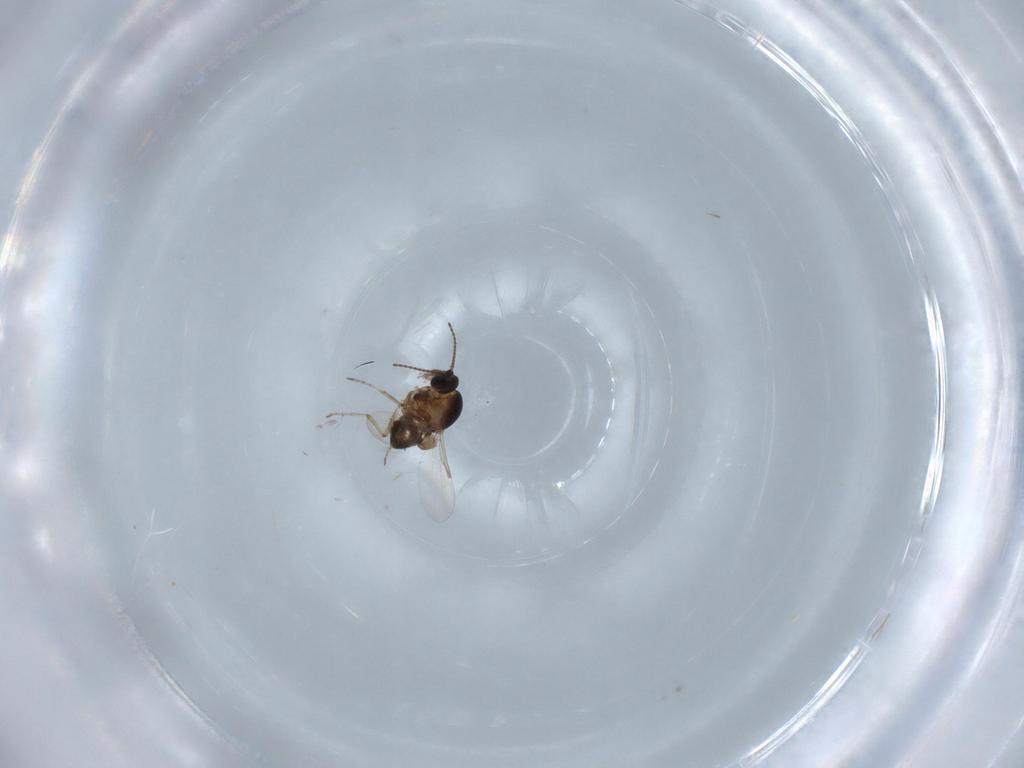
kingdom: Animalia
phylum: Arthropoda
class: Insecta
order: Diptera
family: Ceratopogonidae
